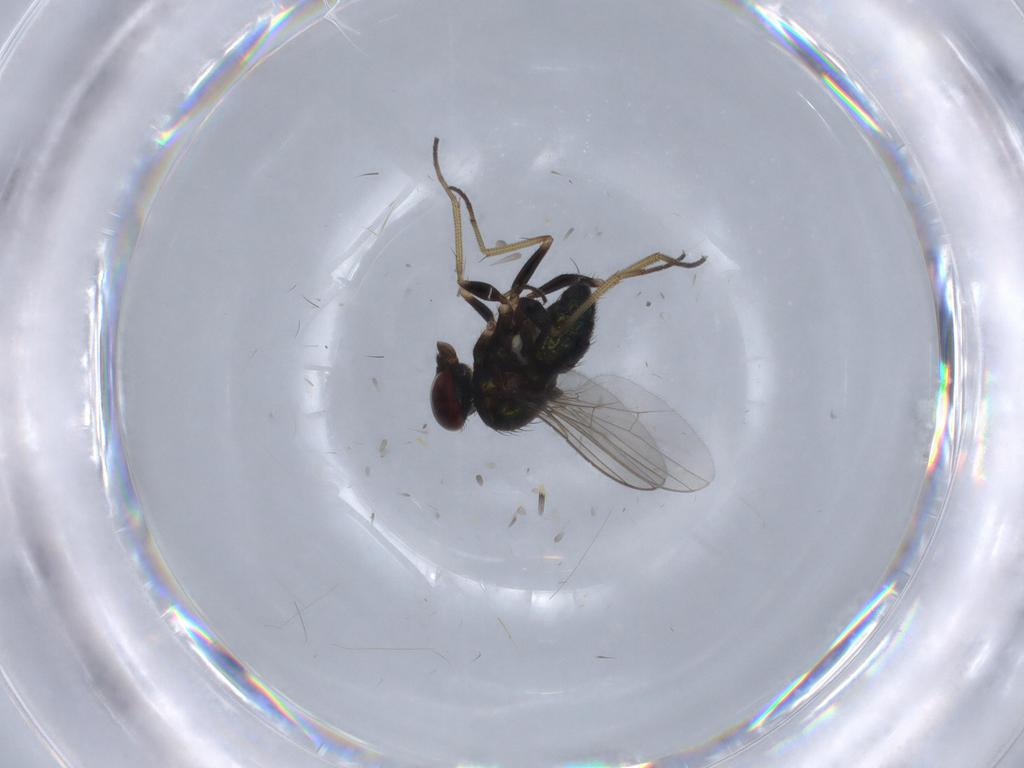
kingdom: Animalia
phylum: Arthropoda
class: Insecta
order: Diptera
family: Dolichopodidae
